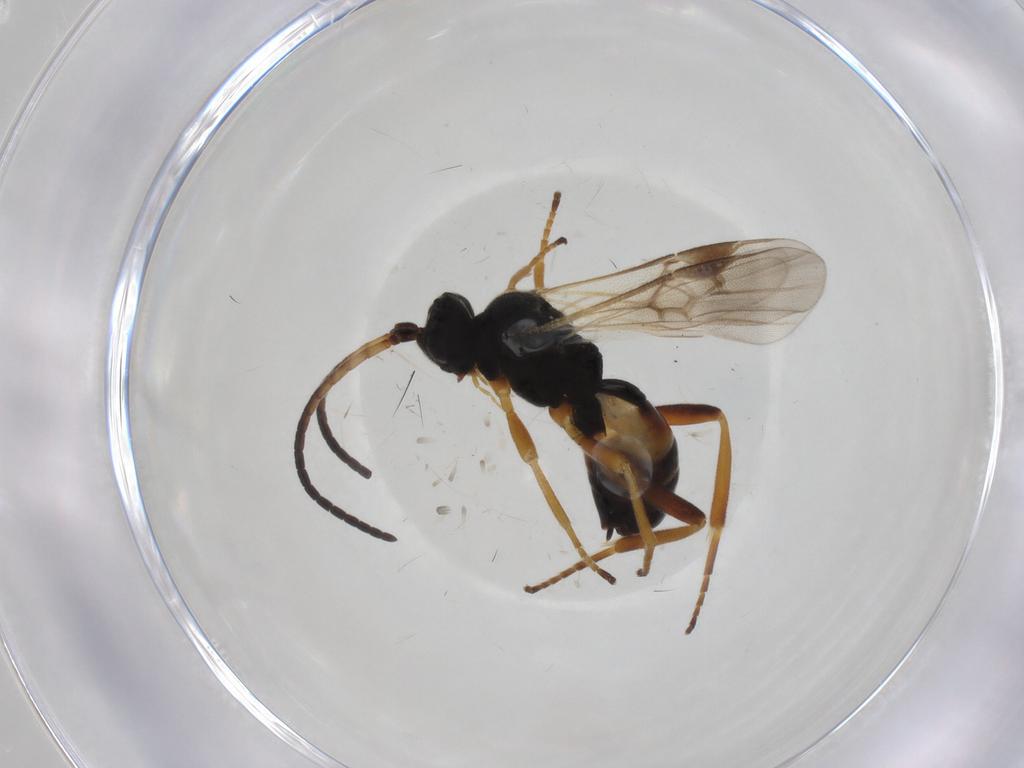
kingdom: Animalia
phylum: Arthropoda
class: Insecta
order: Hymenoptera
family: Braconidae
